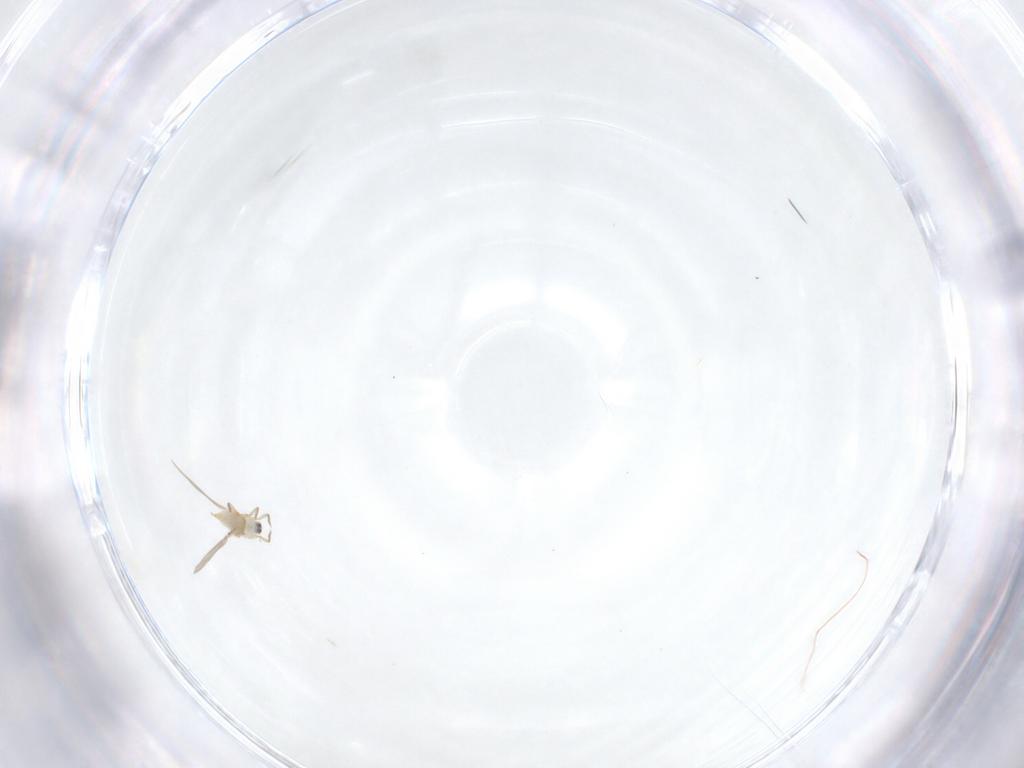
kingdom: Animalia
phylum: Arthropoda
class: Insecta
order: Diptera
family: Cecidomyiidae
